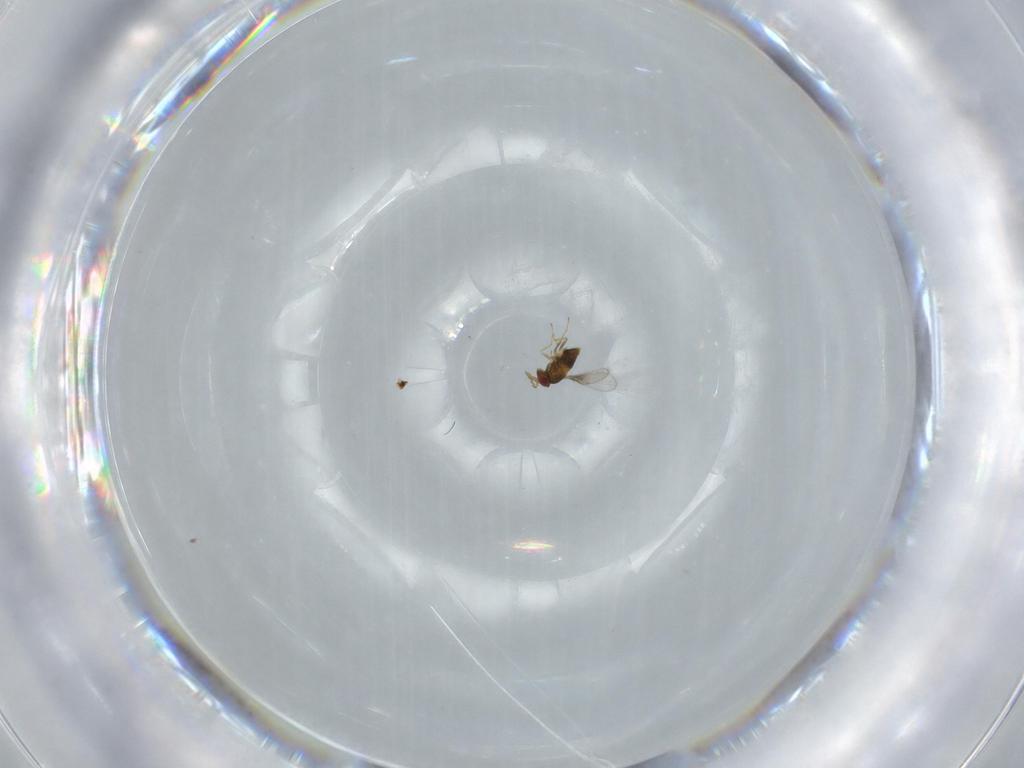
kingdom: Animalia
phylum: Arthropoda
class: Insecta
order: Hymenoptera
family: Trichogrammatidae
